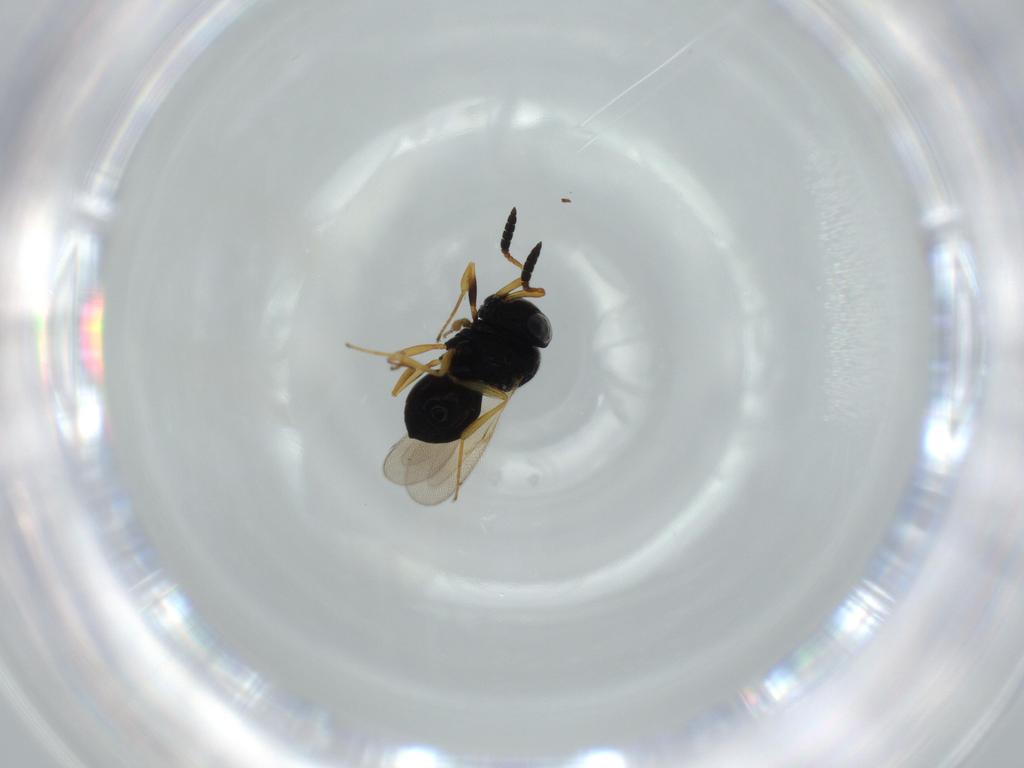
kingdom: Animalia
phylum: Arthropoda
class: Insecta
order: Hymenoptera
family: Scelionidae
